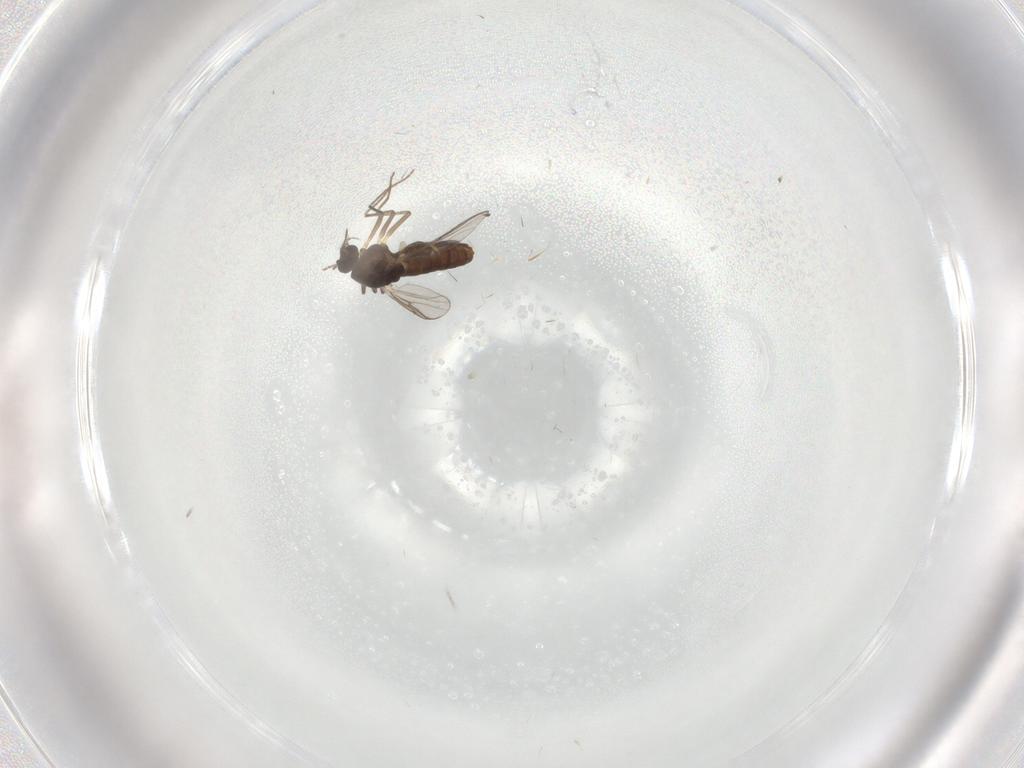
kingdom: Animalia
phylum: Arthropoda
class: Insecta
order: Diptera
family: Chironomidae
